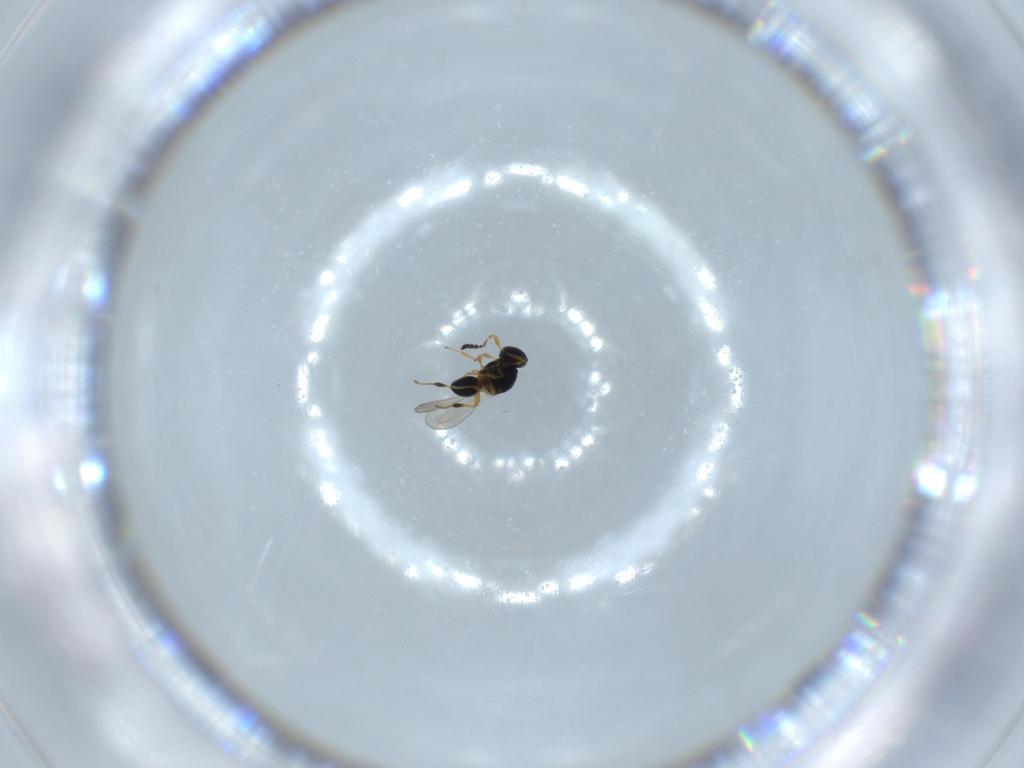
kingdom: Animalia
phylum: Arthropoda
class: Insecta
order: Hymenoptera
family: Platygastridae
